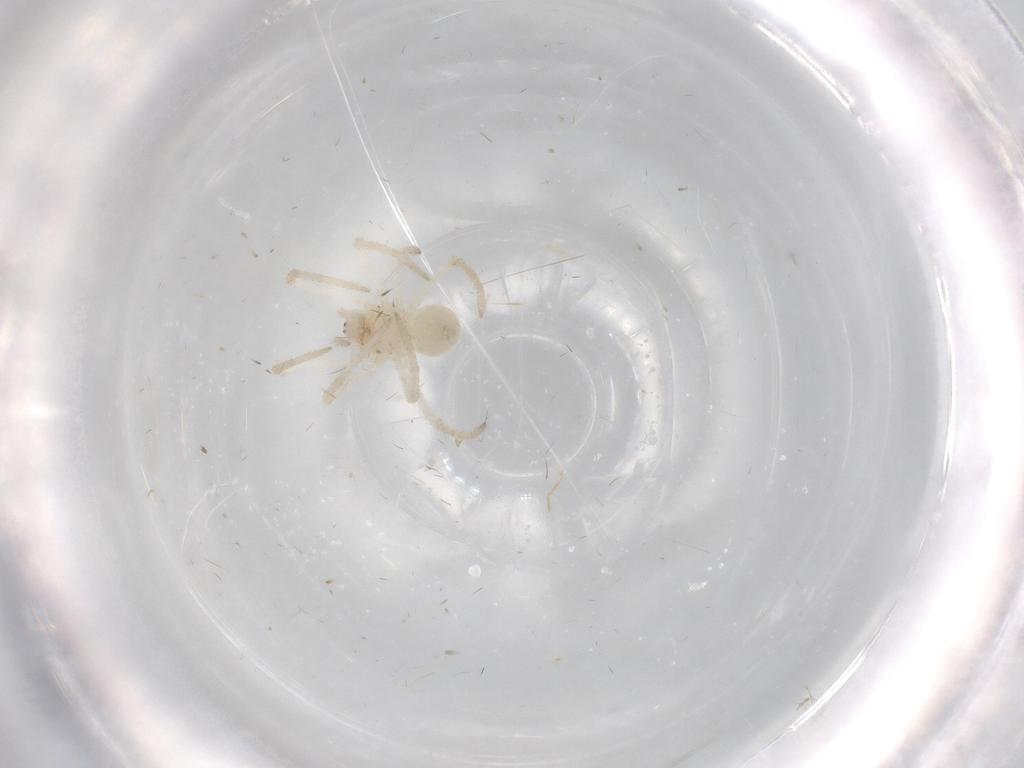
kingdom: Animalia
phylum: Arthropoda
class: Arachnida
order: Araneae
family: Nesticidae
